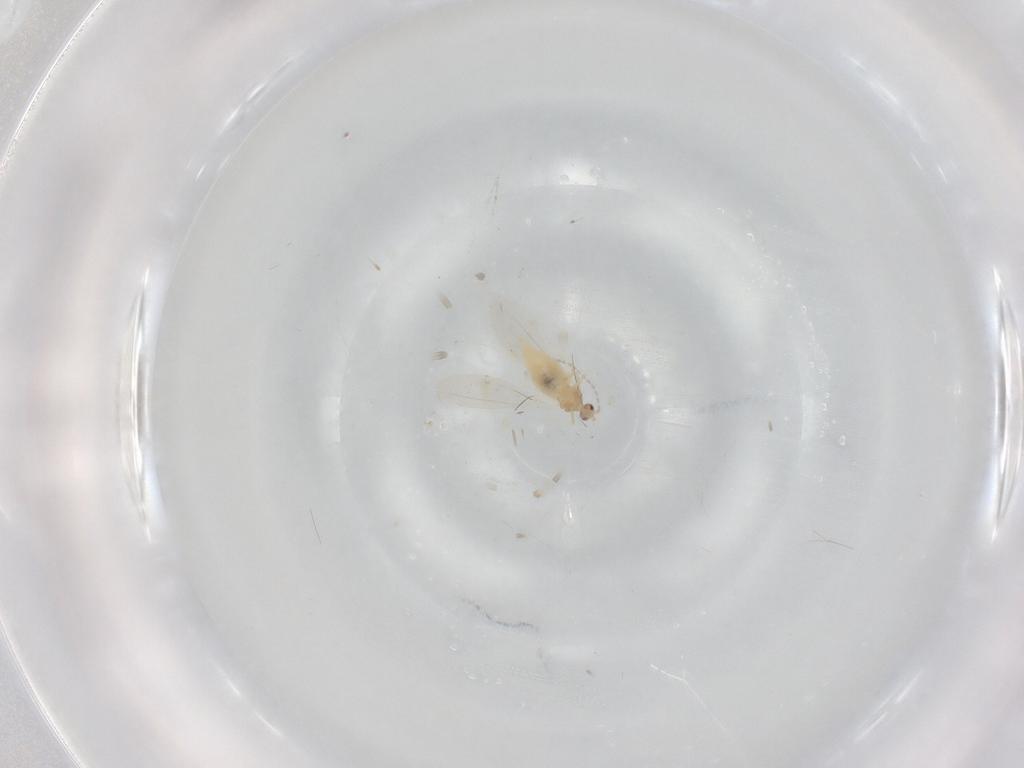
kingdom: Animalia
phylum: Arthropoda
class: Insecta
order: Diptera
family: Cecidomyiidae
